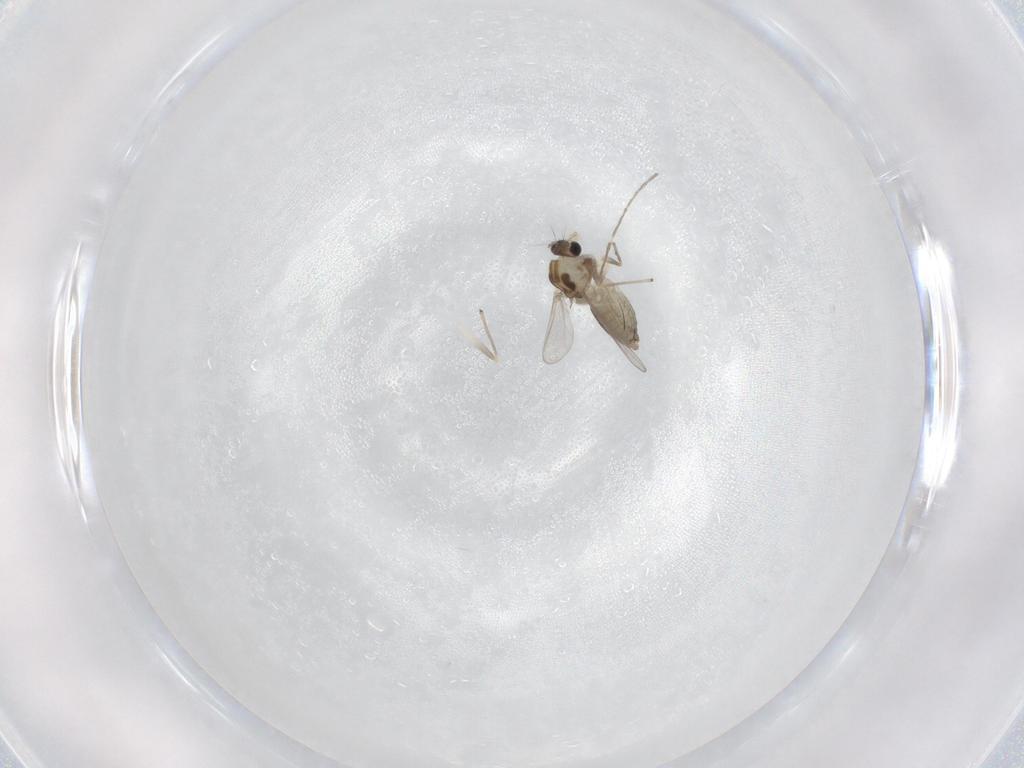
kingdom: Animalia
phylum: Arthropoda
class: Insecta
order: Diptera
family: Chironomidae
